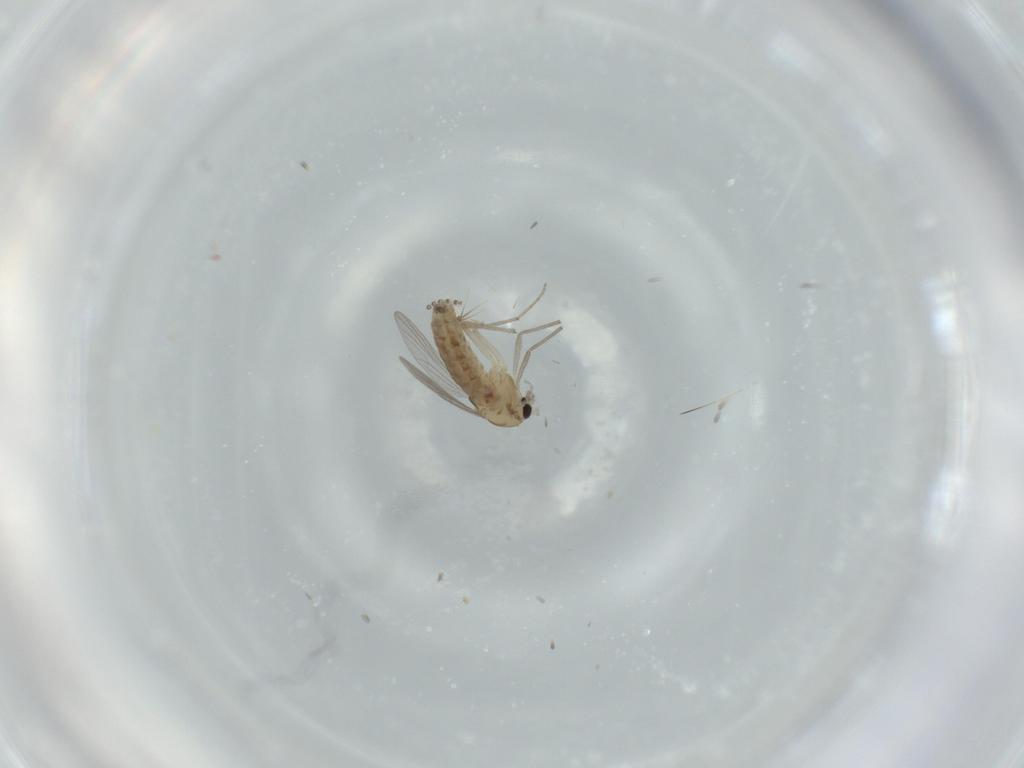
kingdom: Animalia
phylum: Arthropoda
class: Insecta
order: Diptera
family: Chironomidae
